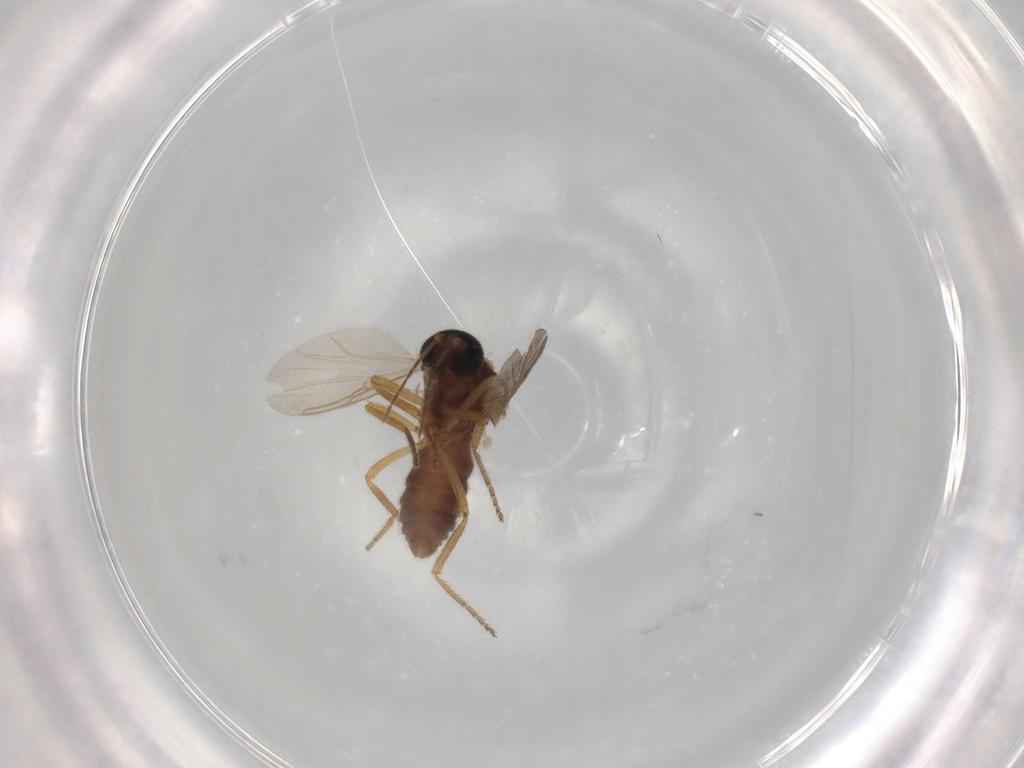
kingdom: Animalia
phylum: Arthropoda
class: Insecta
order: Diptera
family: Ceratopogonidae
